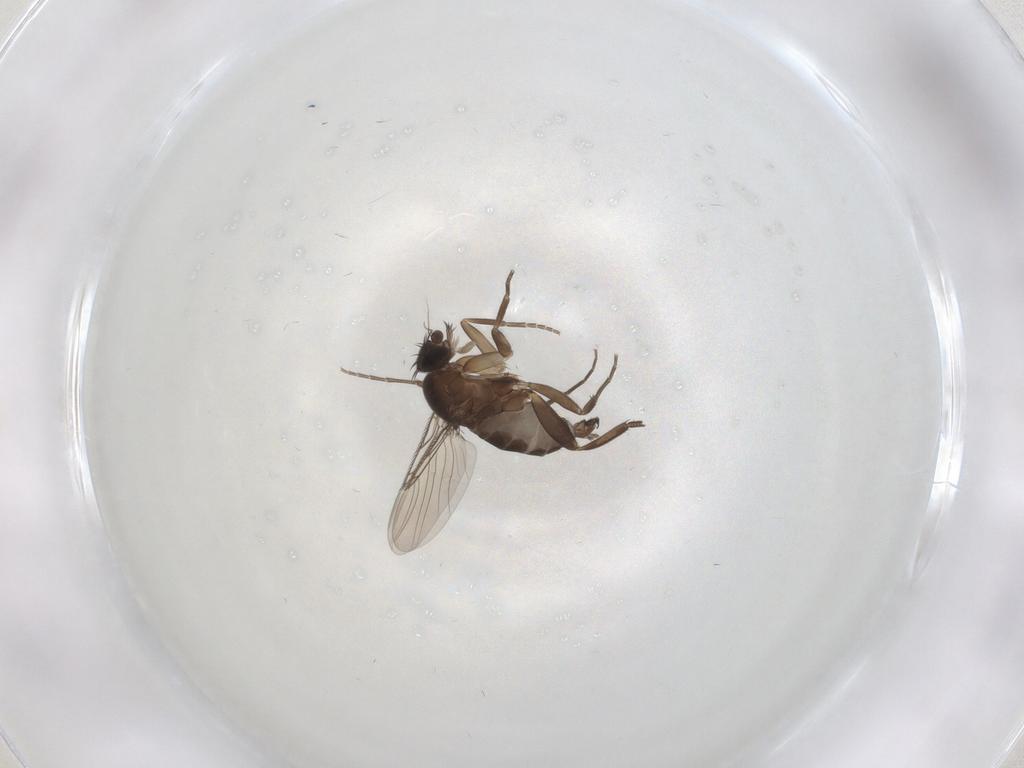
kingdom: Animalia
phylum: Arthropoda
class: Insecta
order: Diptera
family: Phoridae
